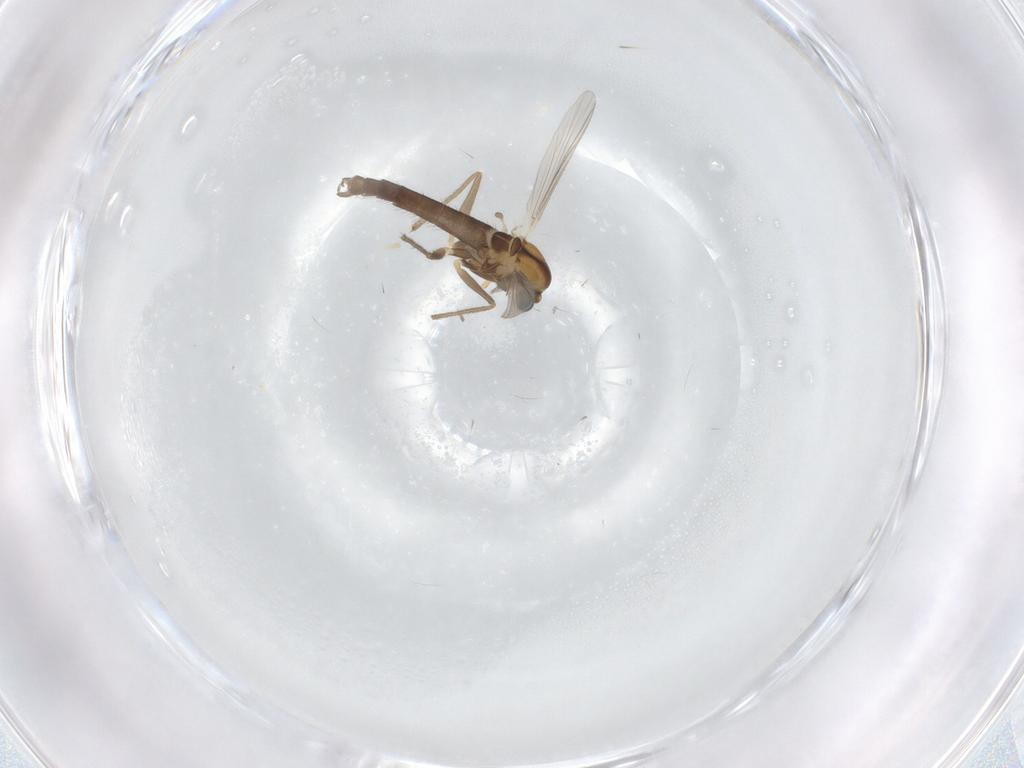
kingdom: Animalia
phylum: Arthropoda
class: Insecta
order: Diptera
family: Chironomidae
